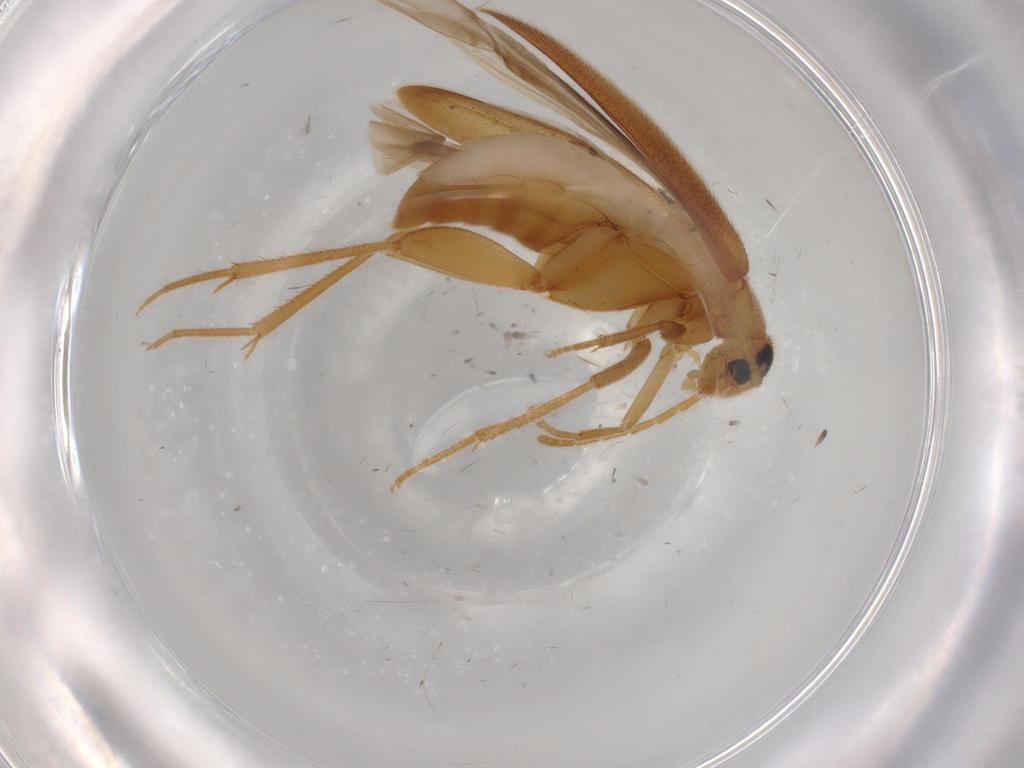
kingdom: Animalia
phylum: Arthropoda
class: Insecta
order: Coleoptera
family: Scraptiidae
